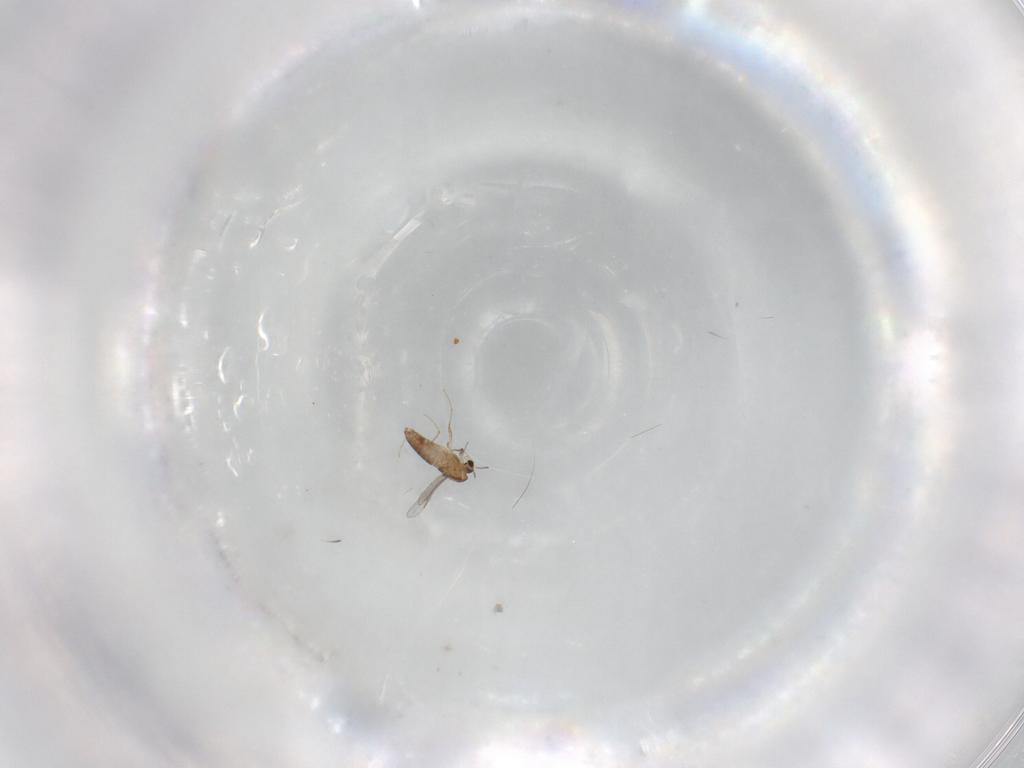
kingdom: Animalia
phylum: Arthropoda
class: Insecta
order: Diptera
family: Chironomidae
